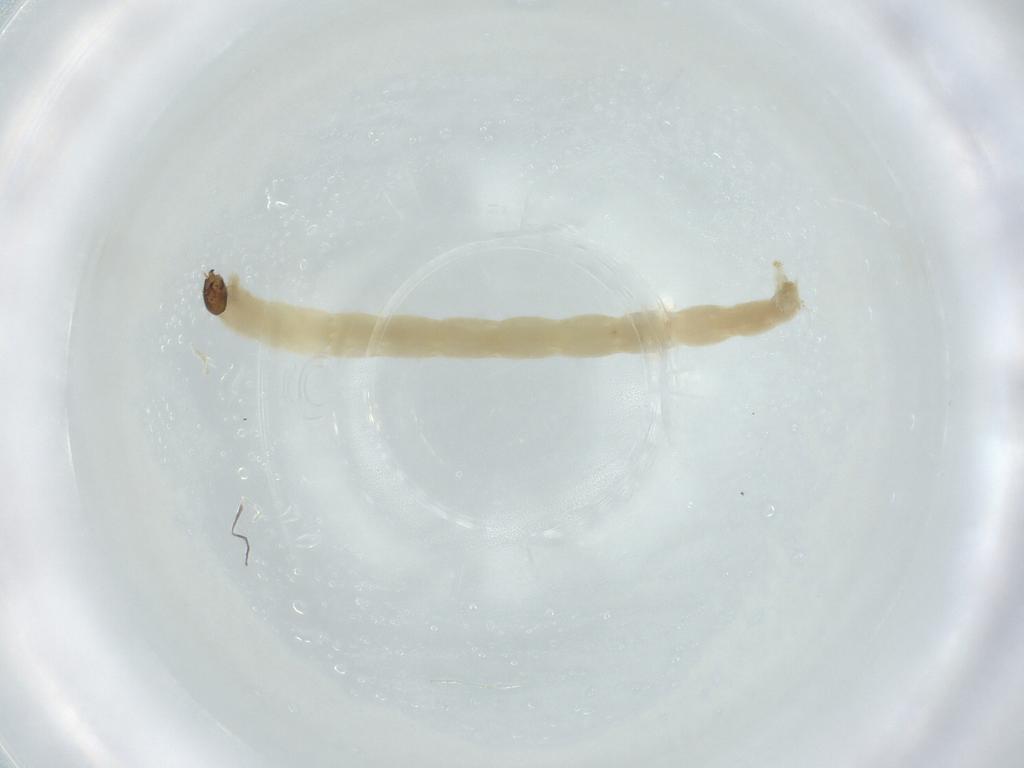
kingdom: Animalia
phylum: Arthropoda
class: Insecta
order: Diptera
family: Chironomidae
